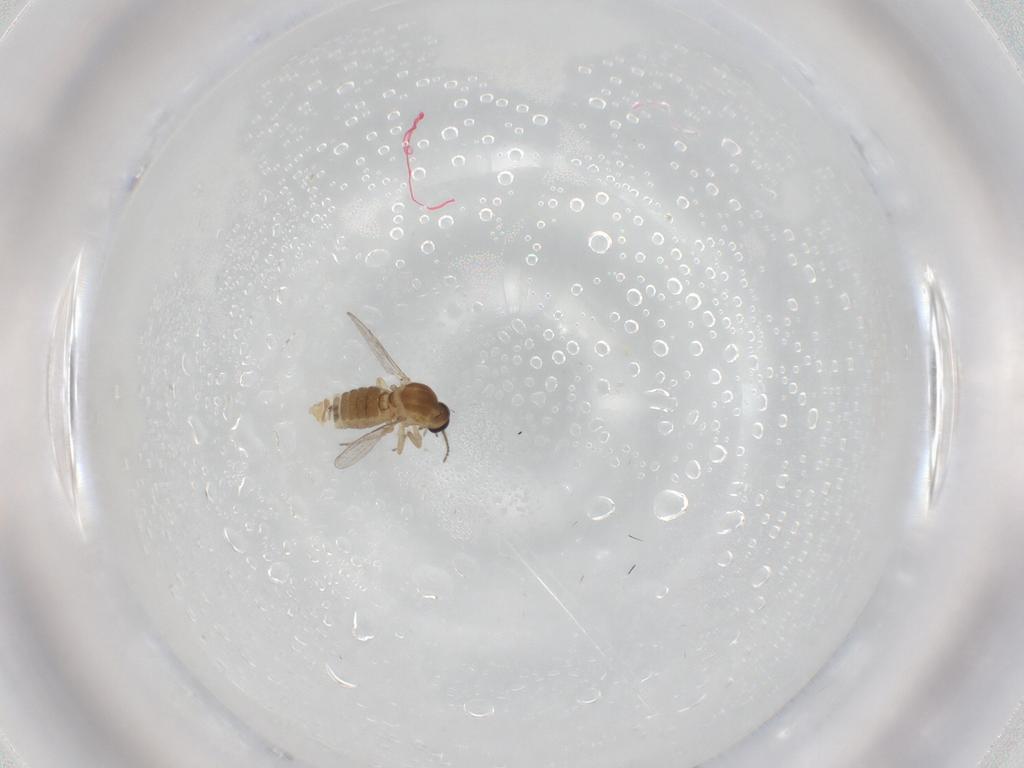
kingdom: Animalia
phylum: Arthropoda
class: Insecta
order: Diptera
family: Ceratopogonidae
